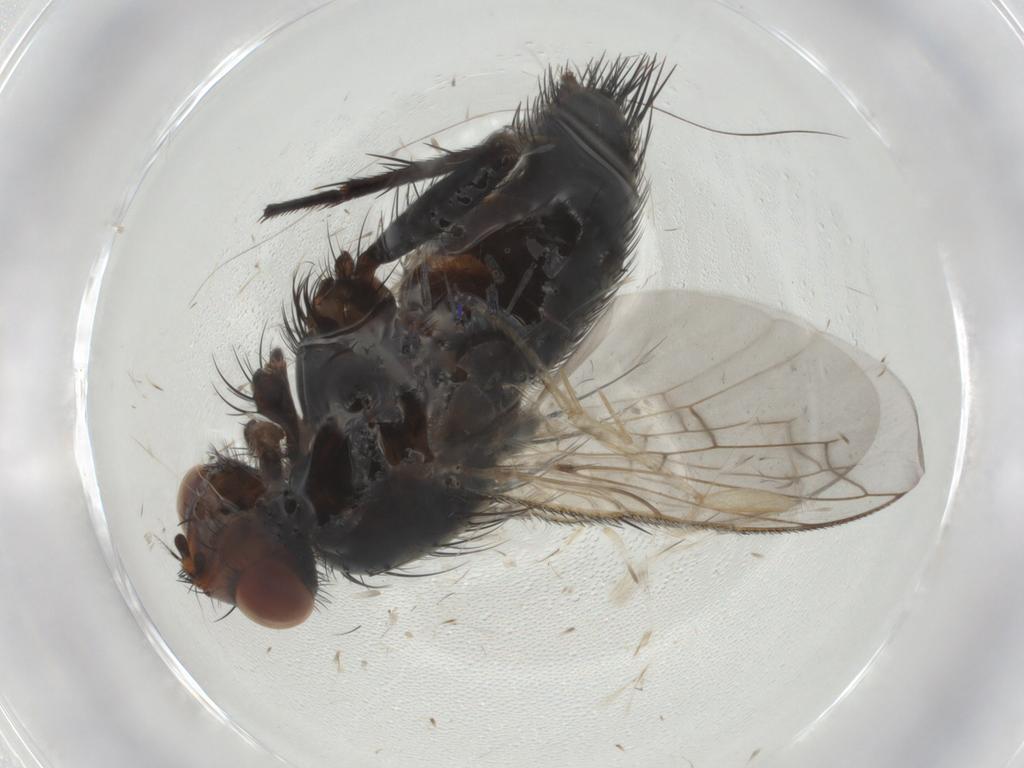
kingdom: Animalia
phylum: Arthropoda
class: Insecta
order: Diptera
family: Tachinidae
